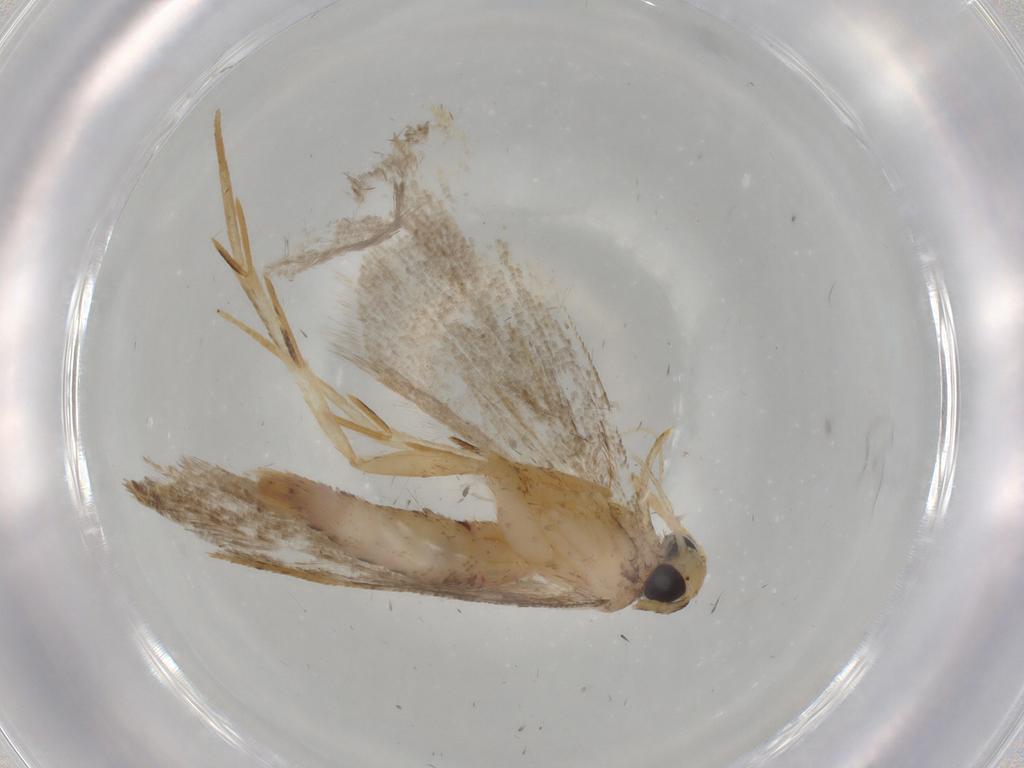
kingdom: Animalia
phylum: Arthropoda
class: Insecta
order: Lepidoptera
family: Autostichidae
